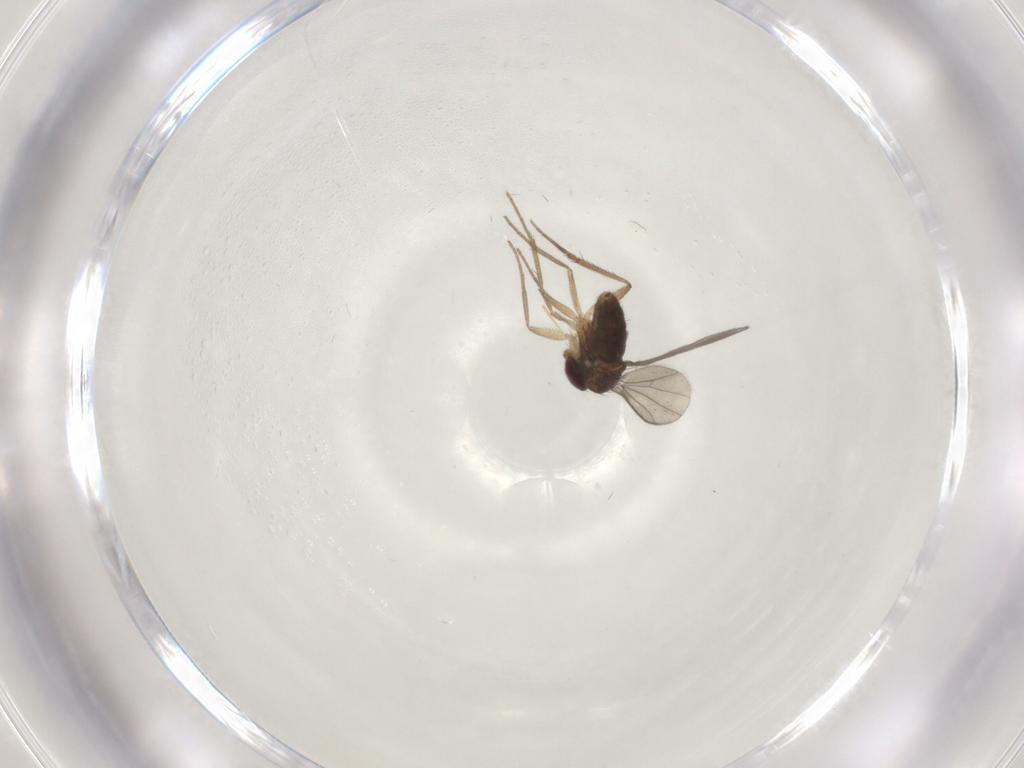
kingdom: Animalia
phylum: Arthropoda
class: Insecta
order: Diptera
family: Dolichopodidae
